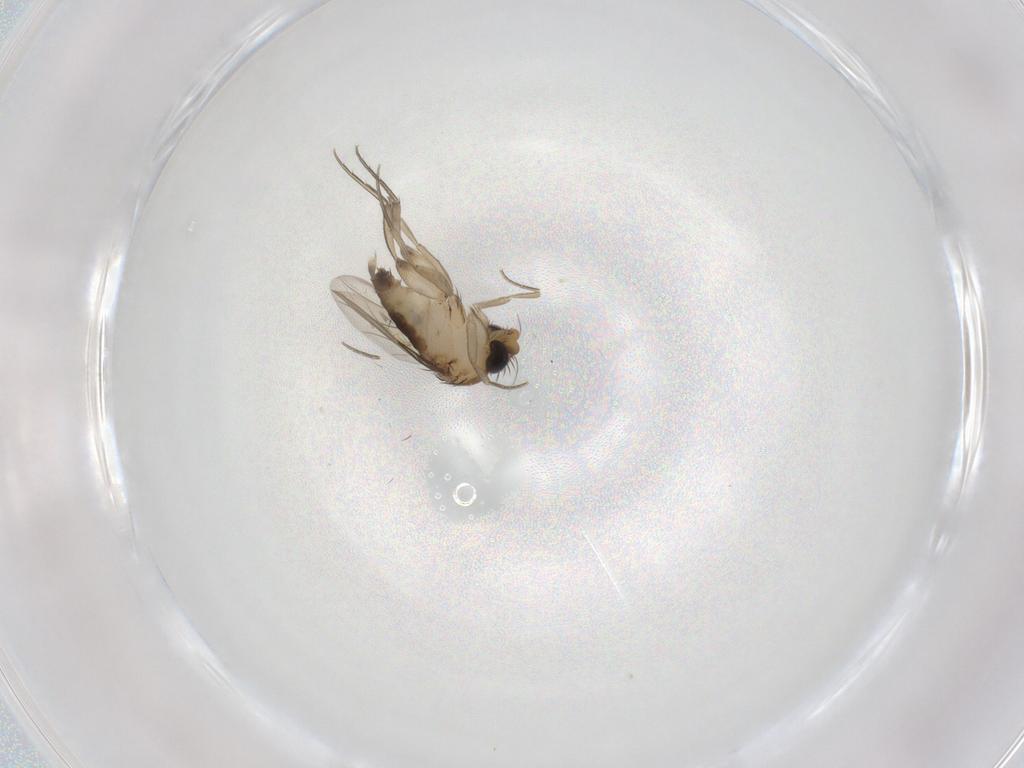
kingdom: Animalia
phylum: Arthropoda
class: Insecta
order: Diptera
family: Phoridae
